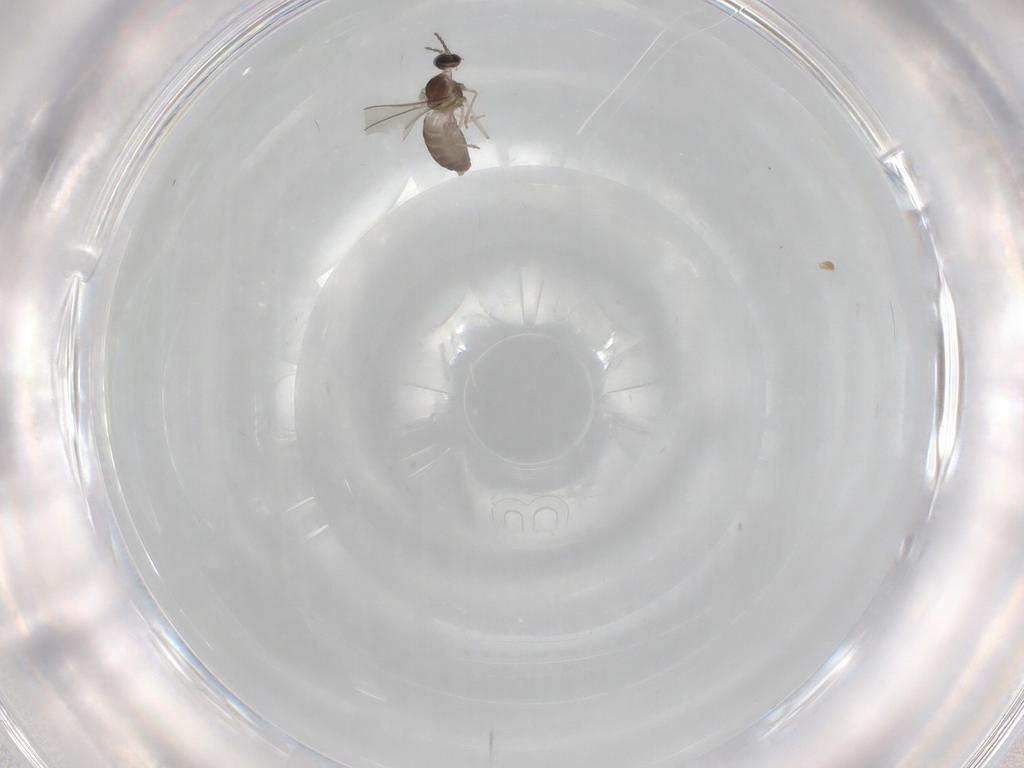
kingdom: Animalia
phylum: Arthropoda
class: Insecta
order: Diptera
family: Cecidomyiidae
